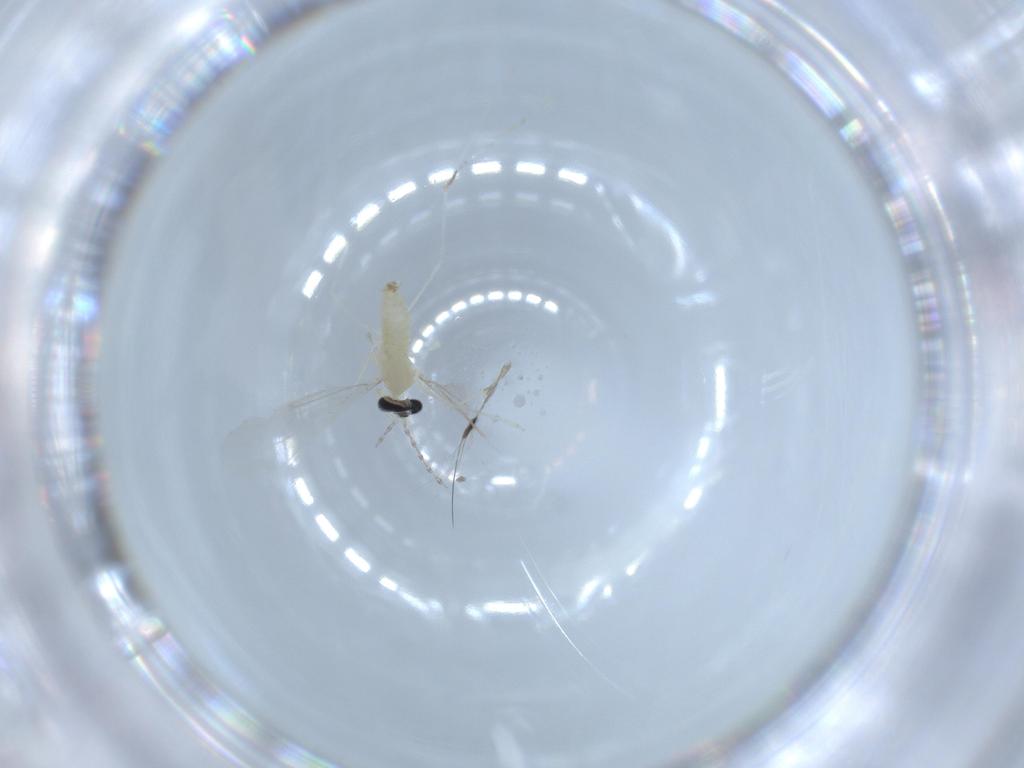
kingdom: Animalia
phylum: Arthropoda
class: Insecta
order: Diptera
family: Cecidomyiidae
